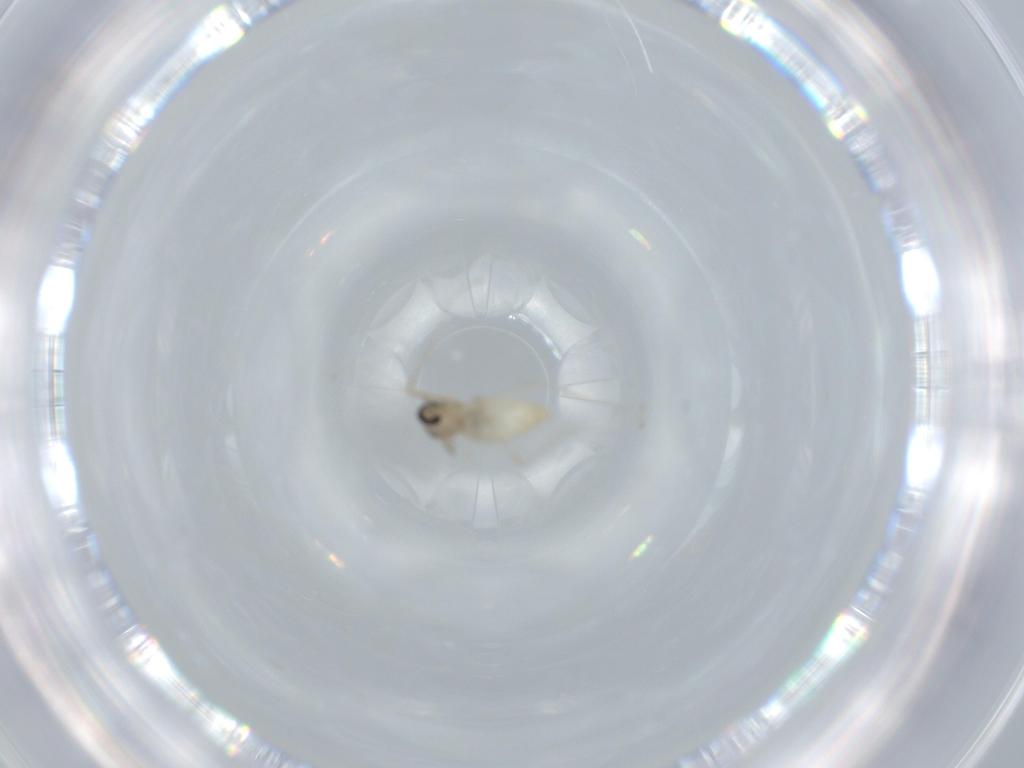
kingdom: Animalia
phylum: Arthropoda
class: Insecta
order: Diptera
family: Cecidomyiidae
